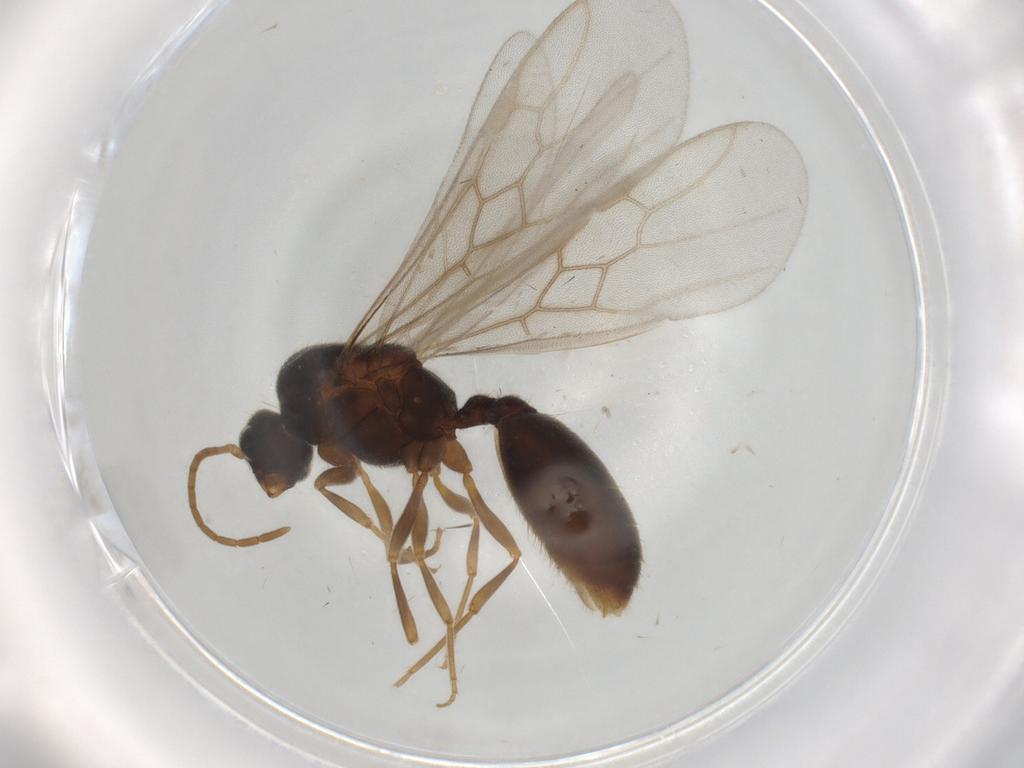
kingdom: Animalia
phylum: Arthropoda
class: Insecta
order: Hymenoptera
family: Formicidae
